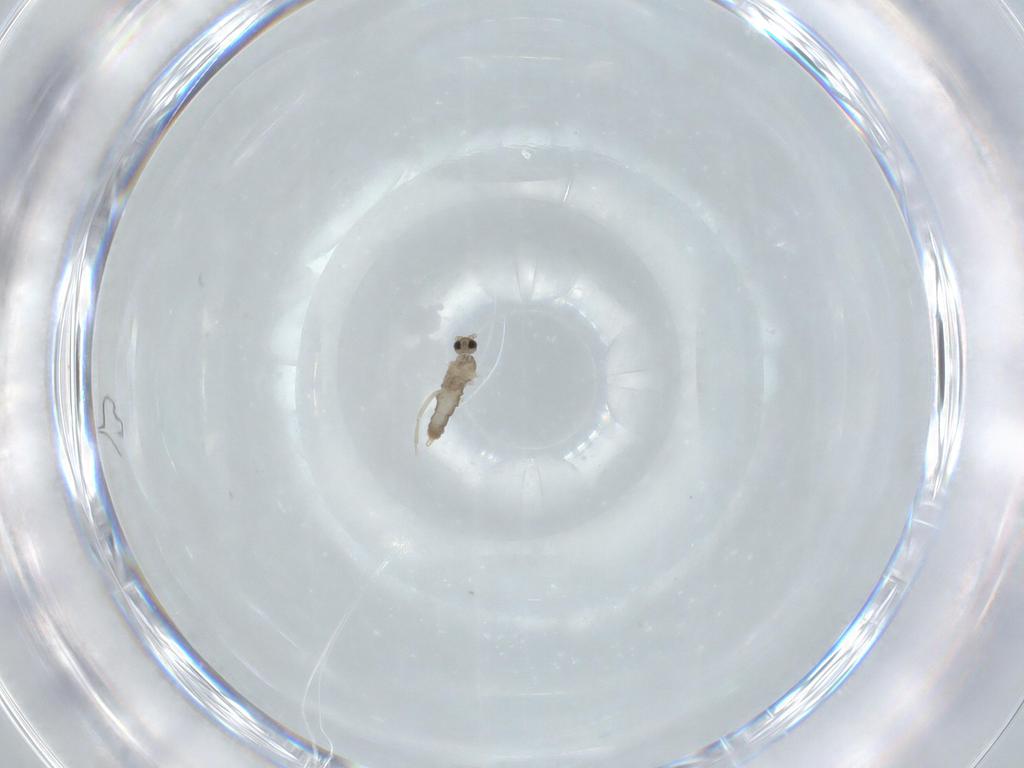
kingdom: Animalia
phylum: Arthropoda
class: Insecta
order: Diptera
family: Cecidomyiidae
